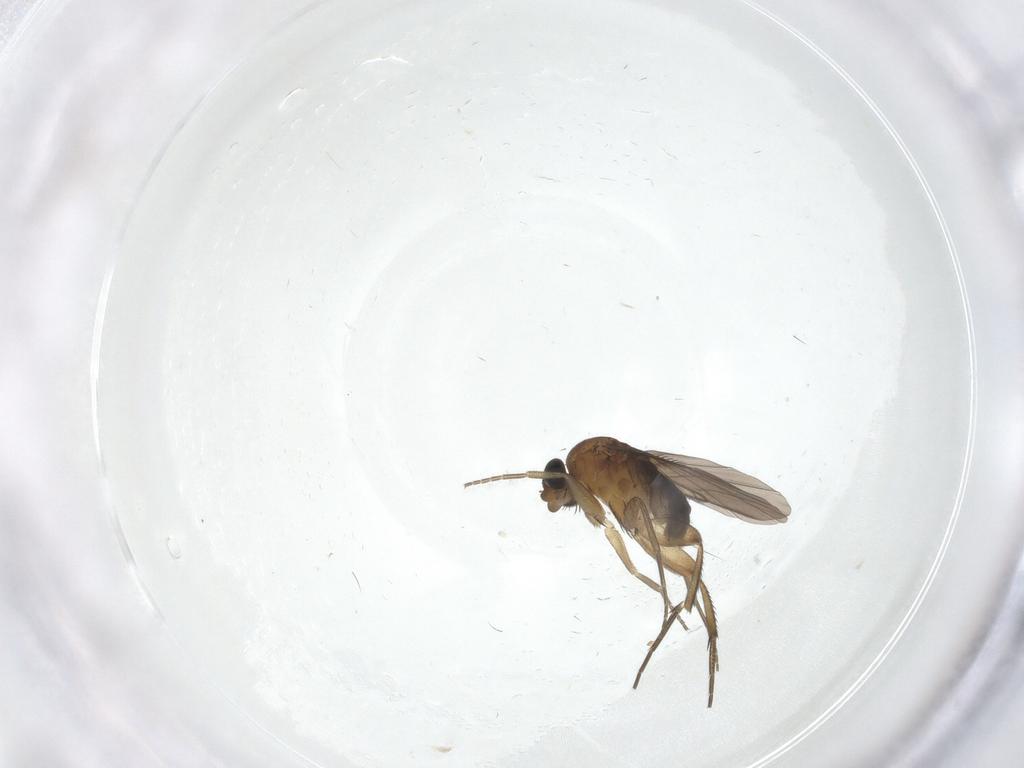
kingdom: Animalia
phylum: Arthropoda
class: Insecta
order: Diptera
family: Phoridae
